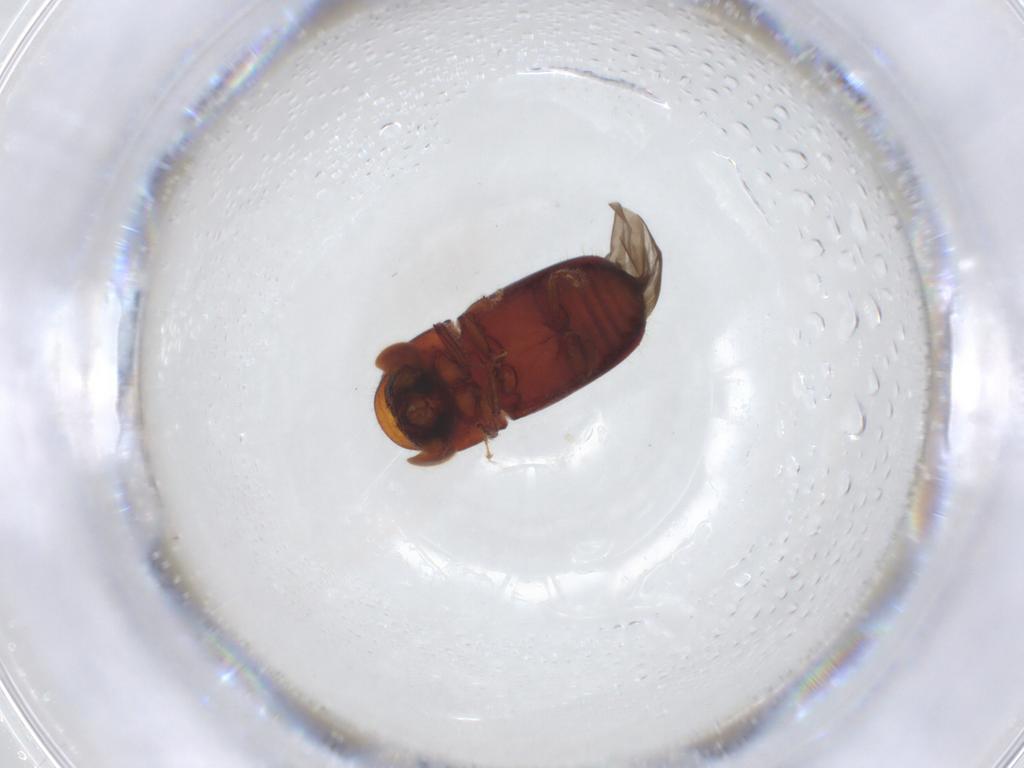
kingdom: Animalia
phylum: Arthropoda
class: Insecta
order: Coleoptera
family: Curculionidae
